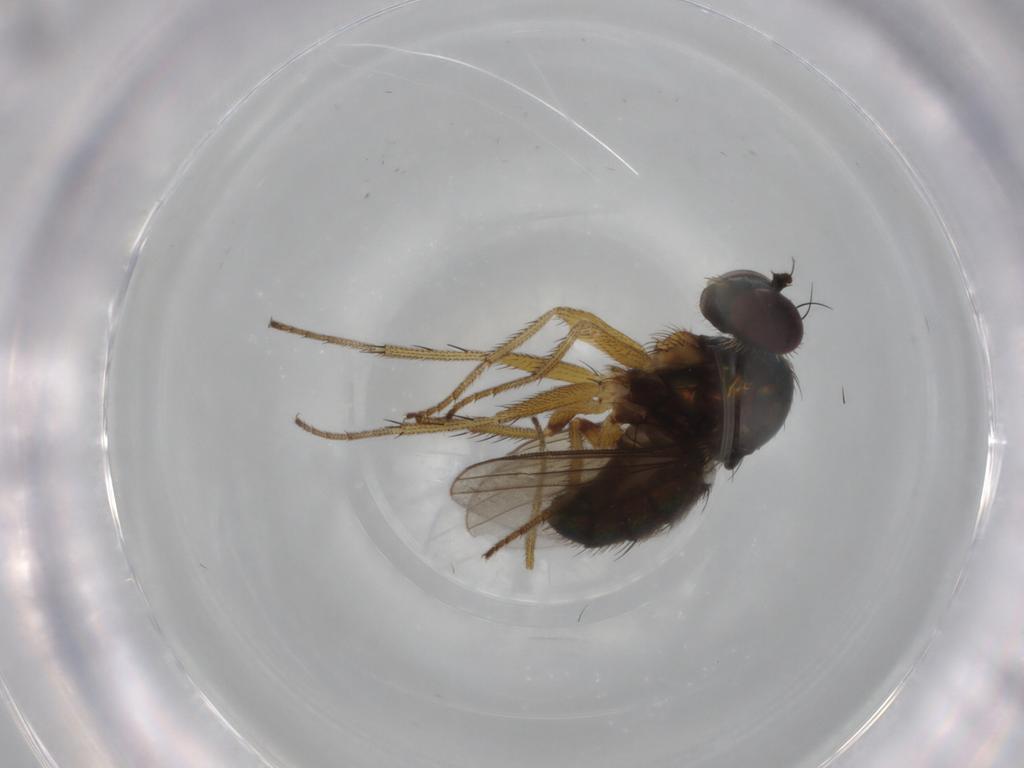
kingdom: Animalia
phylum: Arthropoda
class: Insecta
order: Diptera
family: Dolichopodidae
